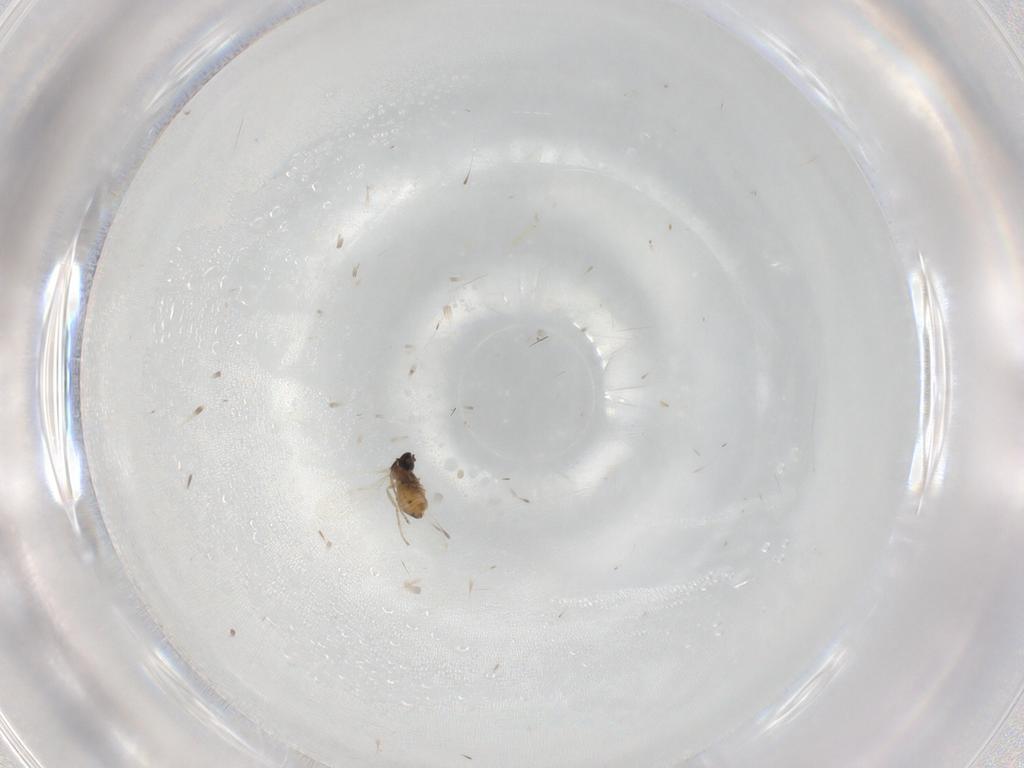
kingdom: Animalia
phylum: Arthropoda
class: Insecta
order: Diptera
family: Cecidomyiidae
